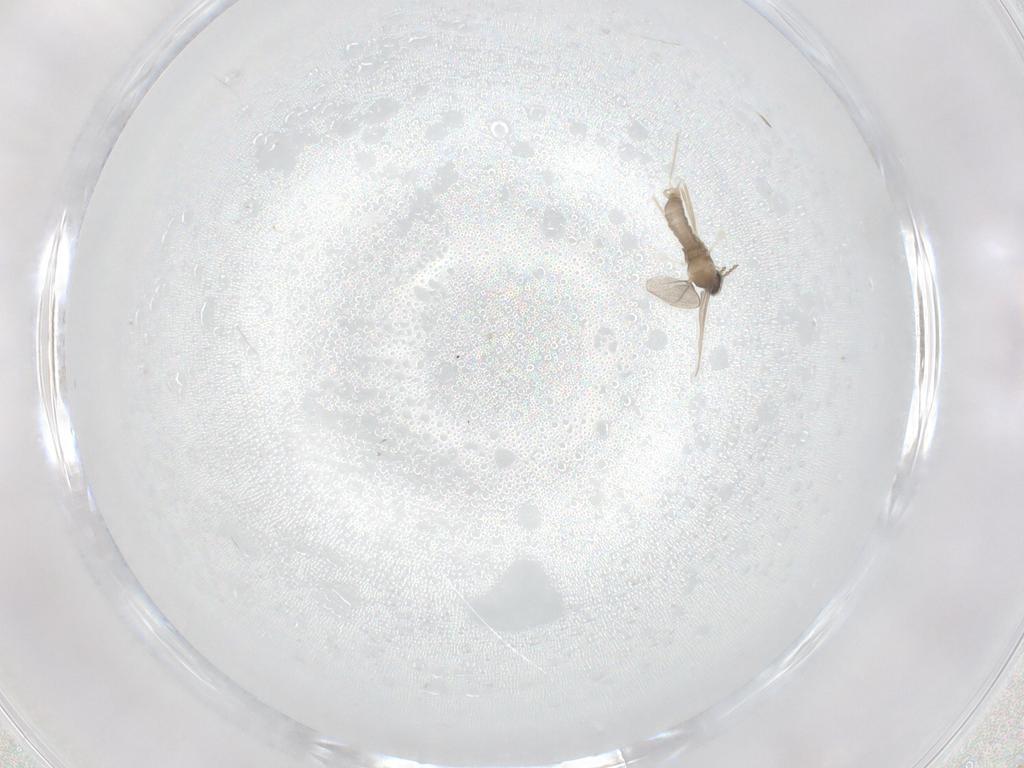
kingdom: Animalia
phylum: Arthropoda
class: Insecta
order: Diptera
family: Cecidomyiidae
